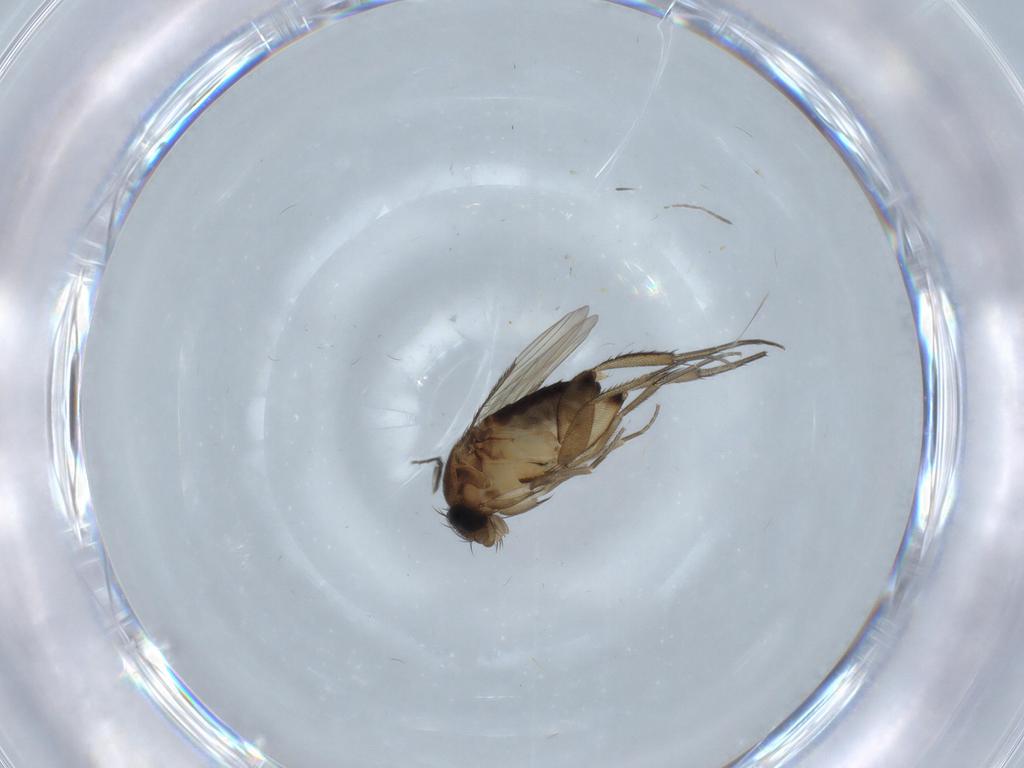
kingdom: Animalia
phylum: Arthropoda
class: Insecta
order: Diptera
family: Phoridae
